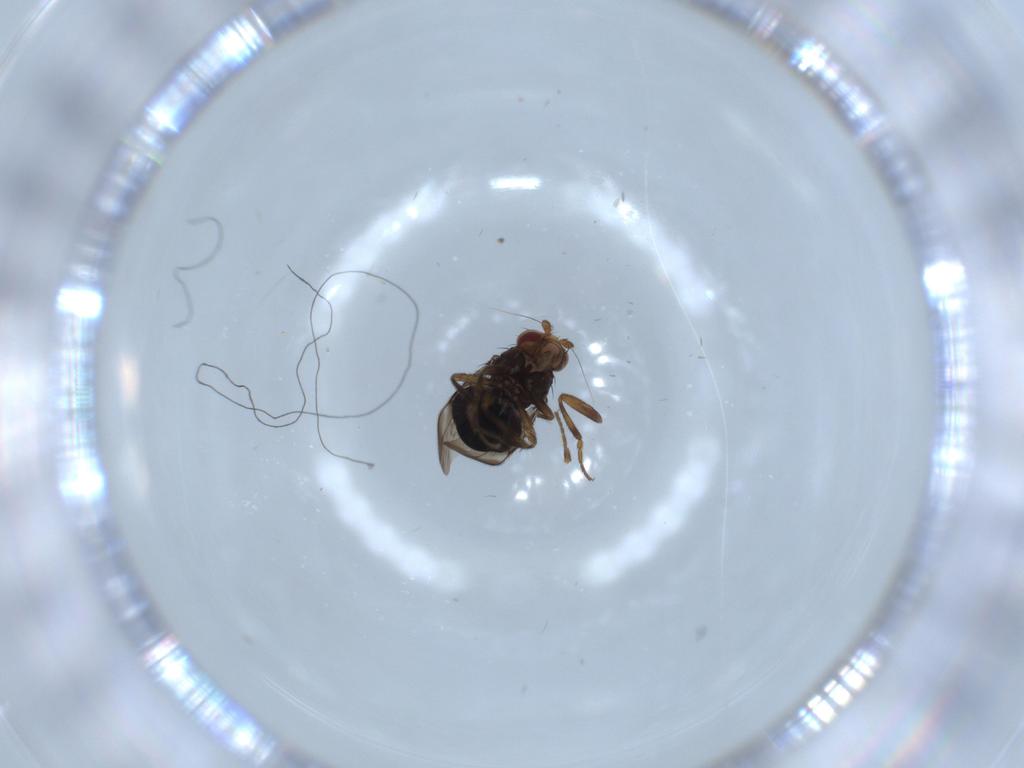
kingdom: Animalia
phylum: Arthropoda
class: Insecta
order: Diptera
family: Sphaeroceridae
